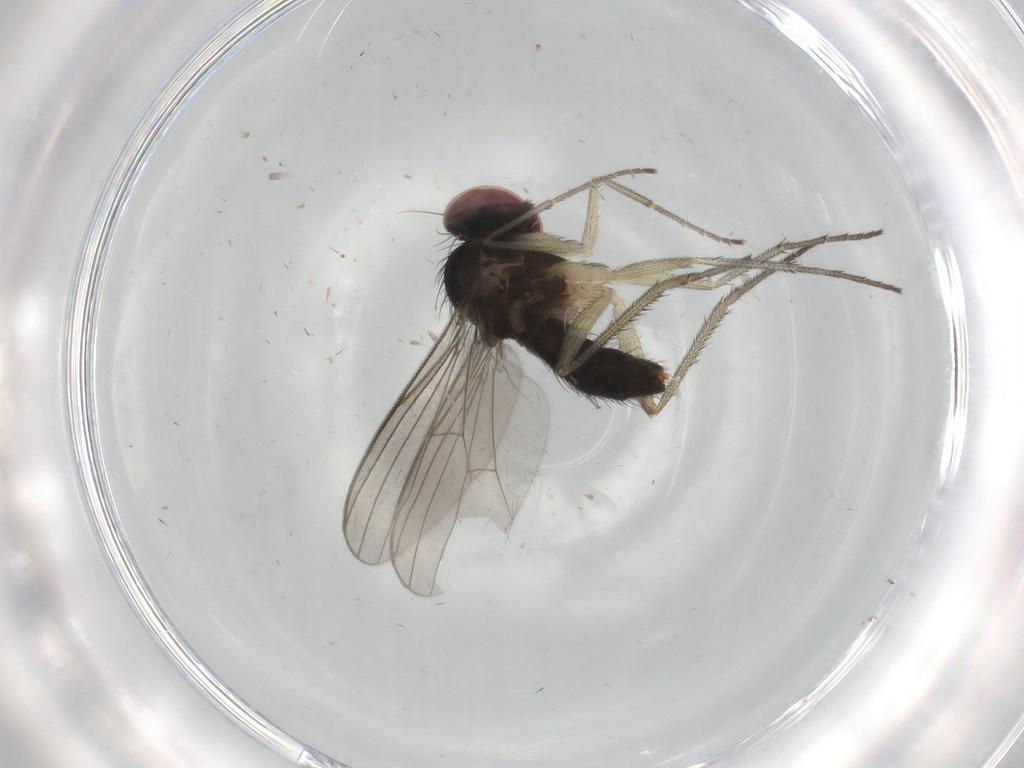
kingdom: Animalia
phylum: Arthropoda
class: Insecta
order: Diptera
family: Dolichopodidae
